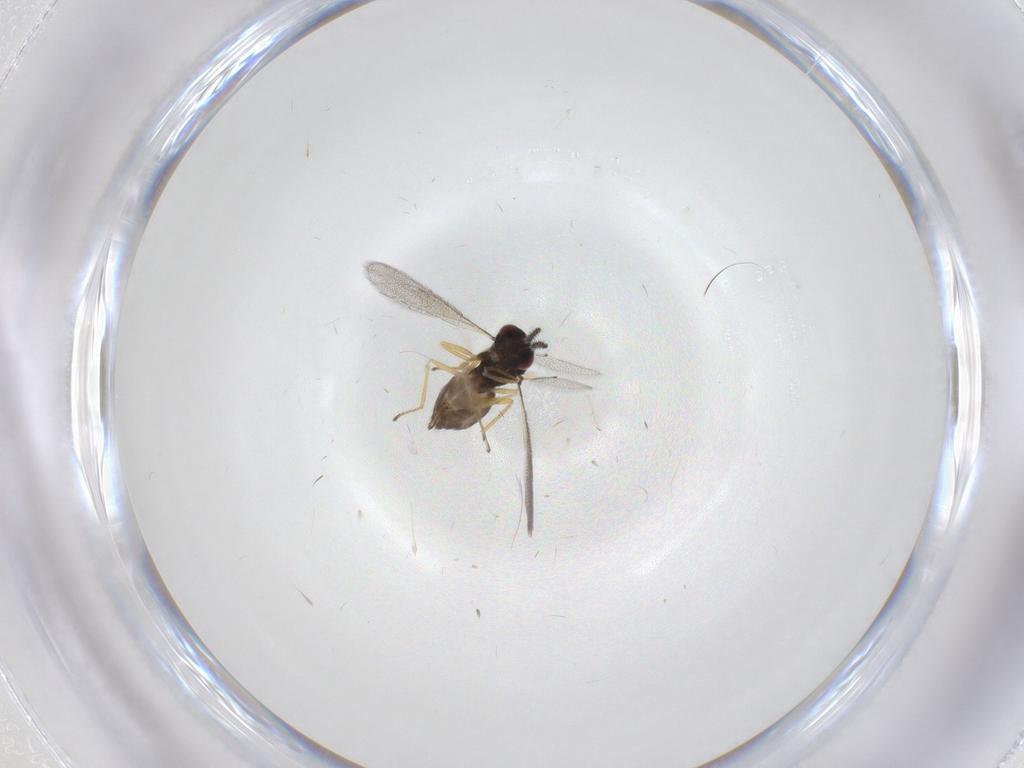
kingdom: Animalia
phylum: Arthropoda
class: Insecta
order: Hymenoptera
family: Eulophidae
